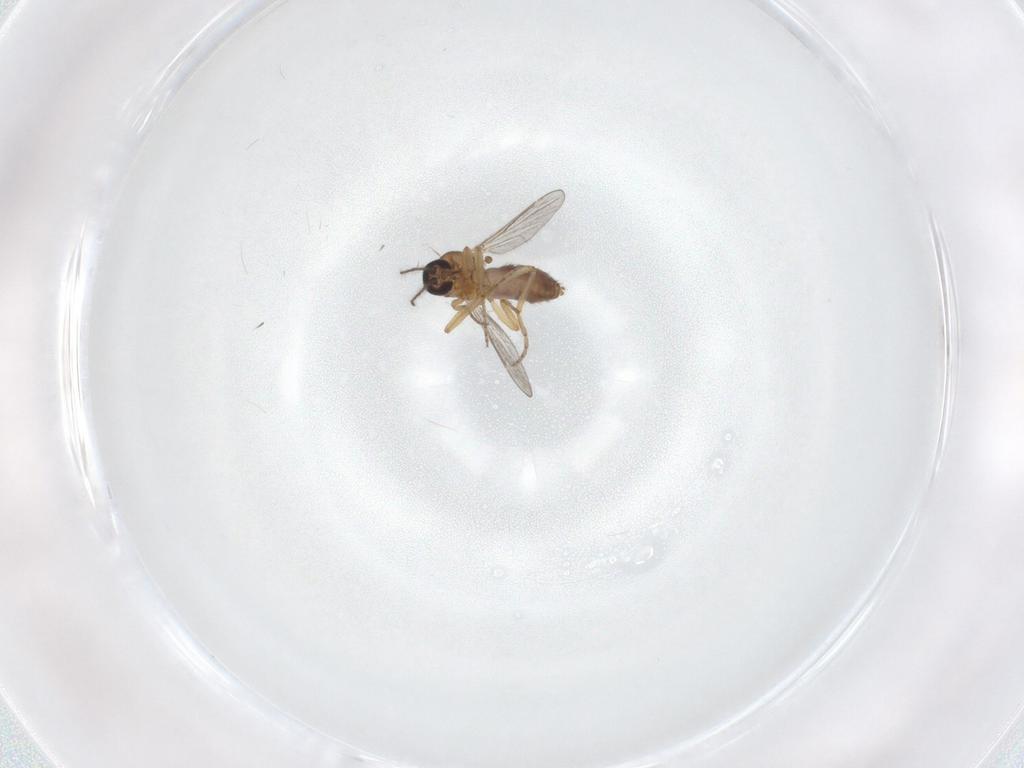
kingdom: Animalia
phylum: Arthropoda
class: Insecta
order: Diptera
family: Ceratopogonidae
